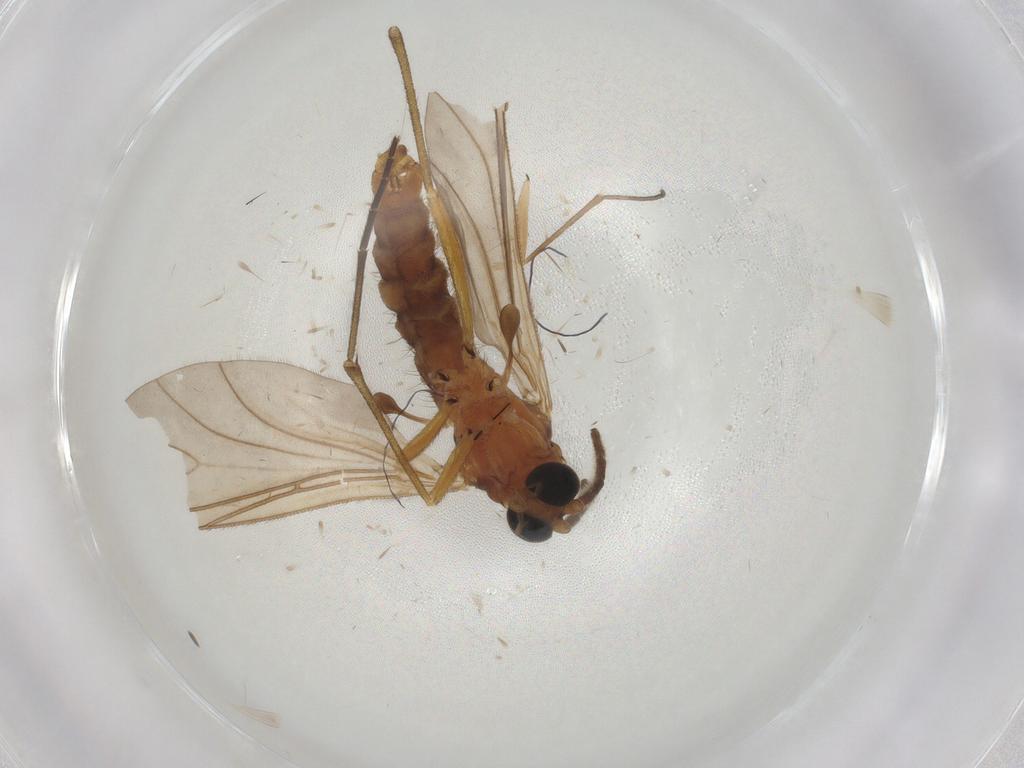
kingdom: Animalia
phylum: Arthropoda
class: Insecta
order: Diptera
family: Sciaridae
